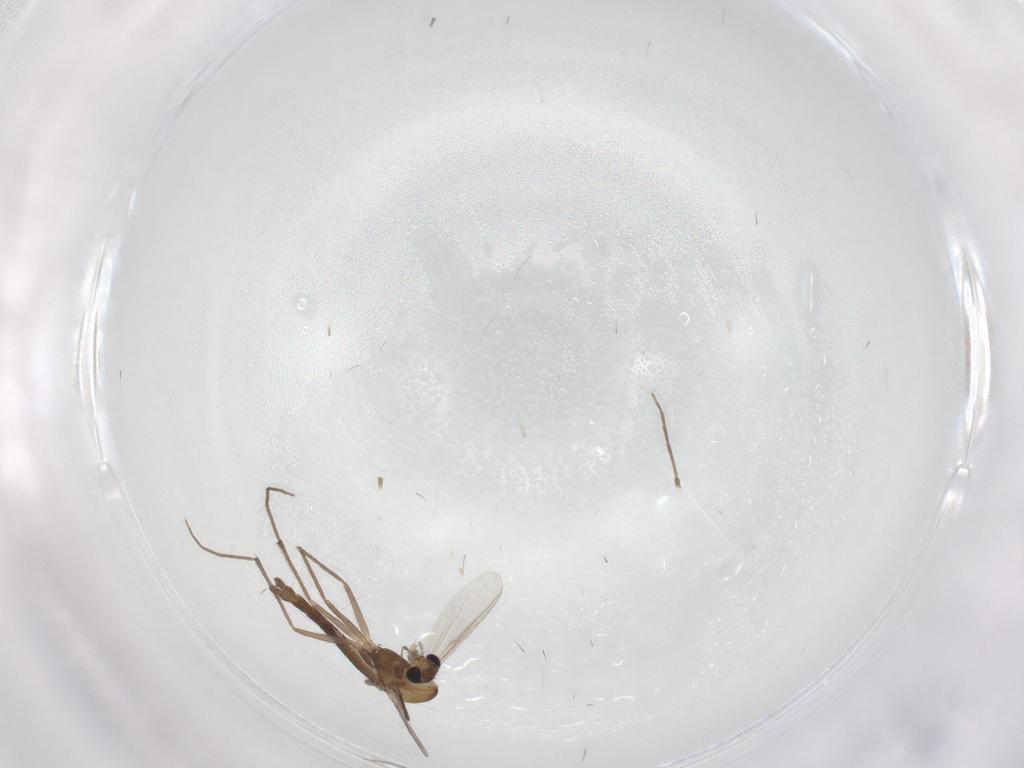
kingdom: Animalia
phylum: Arthropoda
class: Insecta
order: Diptera
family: Chironomidae
